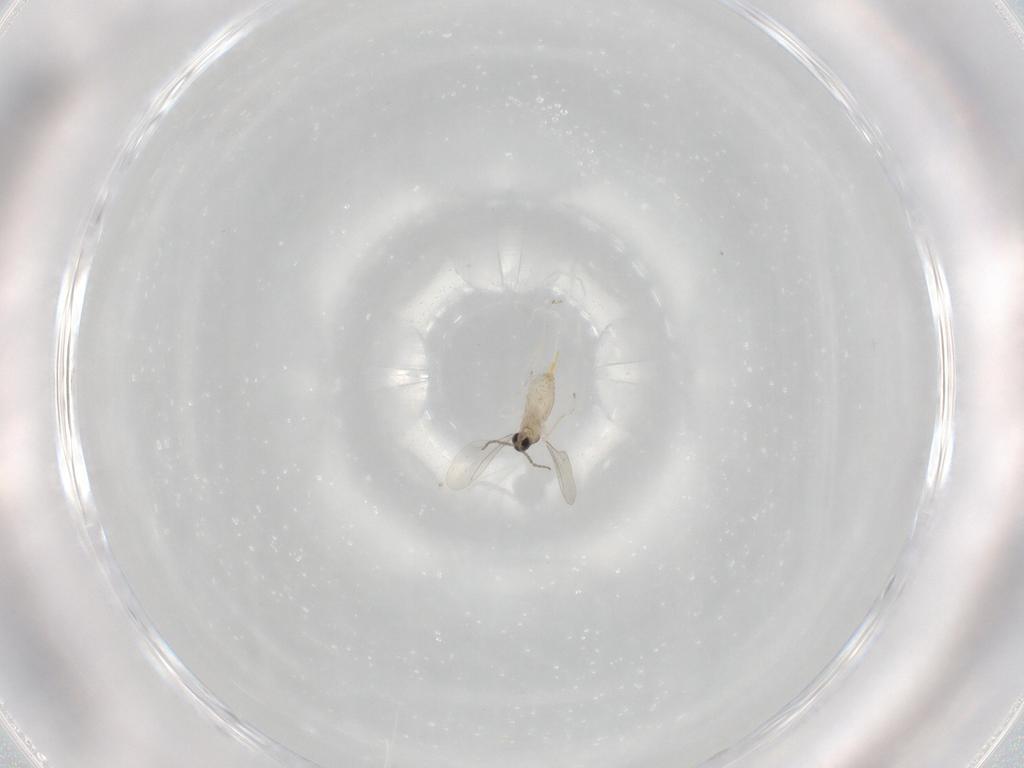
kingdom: Animalia
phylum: Arthropoda
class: Insecta
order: Diptera
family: Cecidomyiidae
